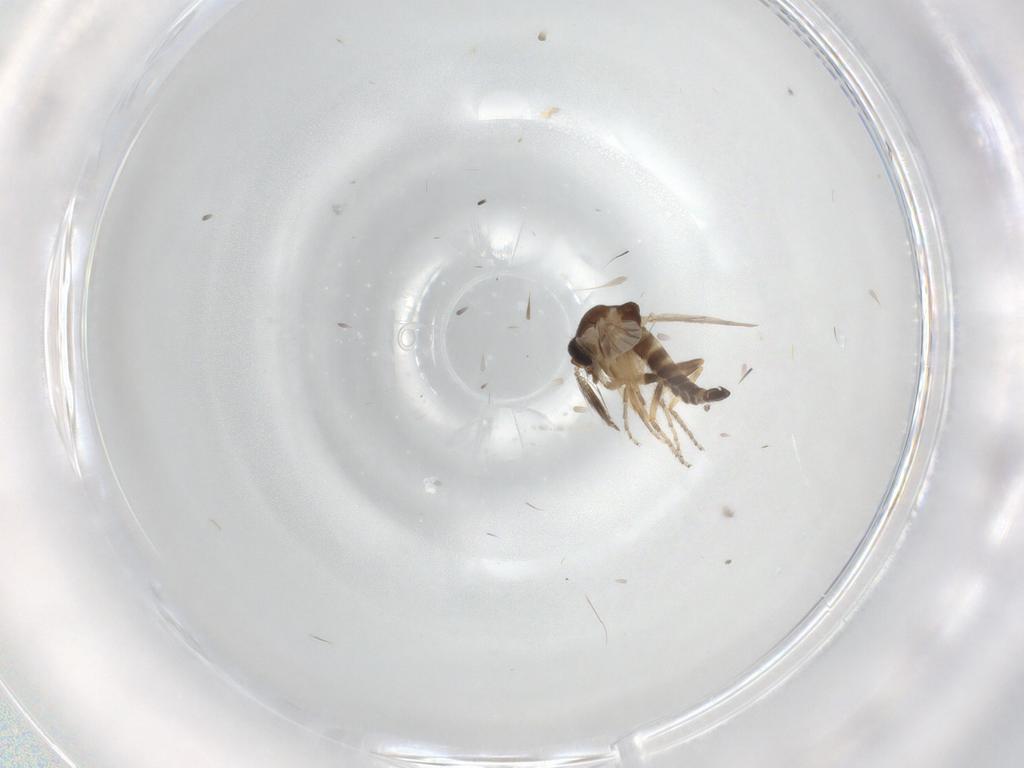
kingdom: Animalia
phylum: Arthropoda
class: Insecta
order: Diptera
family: Ceratopogonidae
